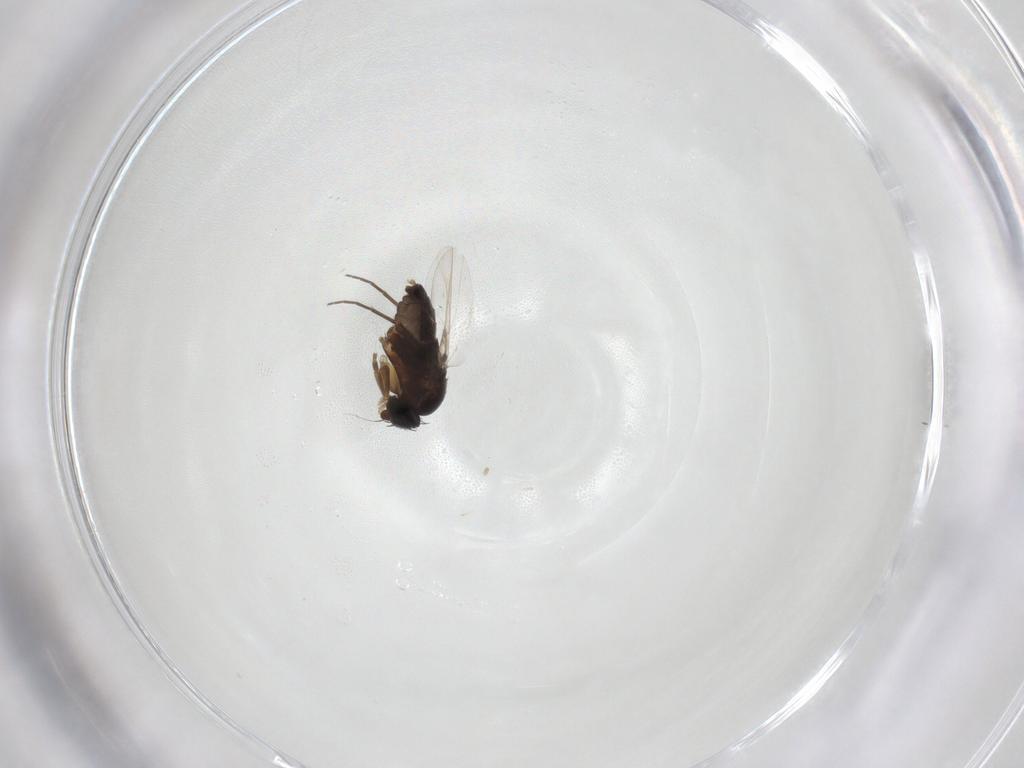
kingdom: Animalia
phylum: Arthropoda
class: Insecta
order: Diptera
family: Phoridae
